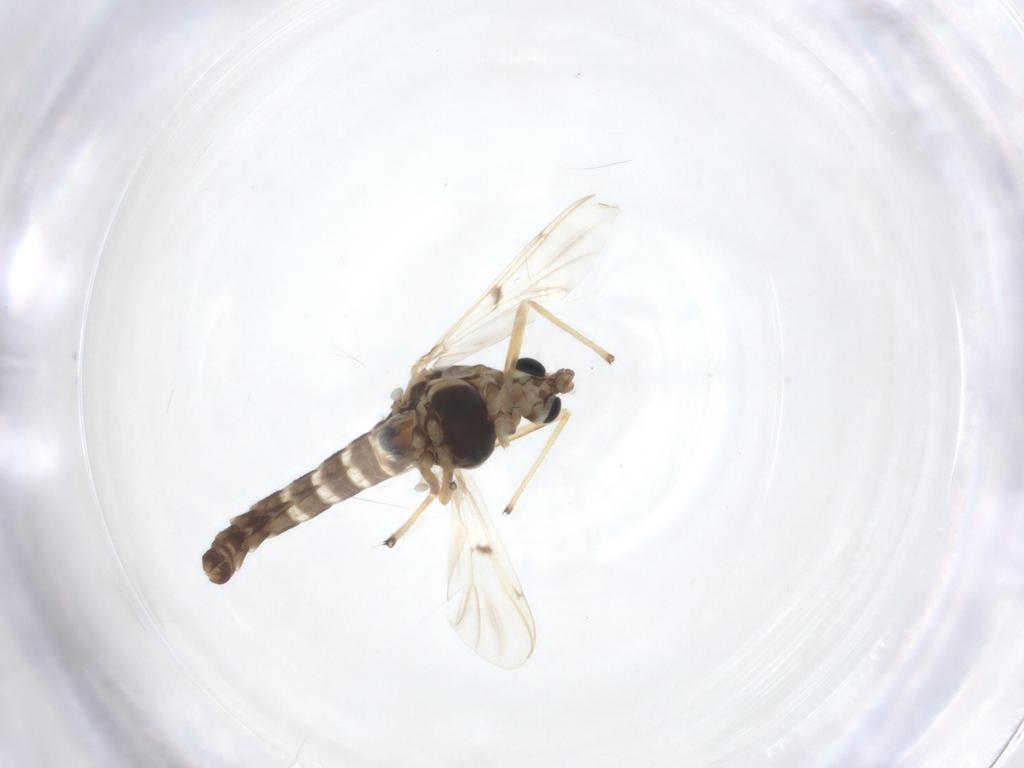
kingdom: Animalia
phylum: Arthropoda
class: Insecta
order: Diptera
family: Chironomidae
